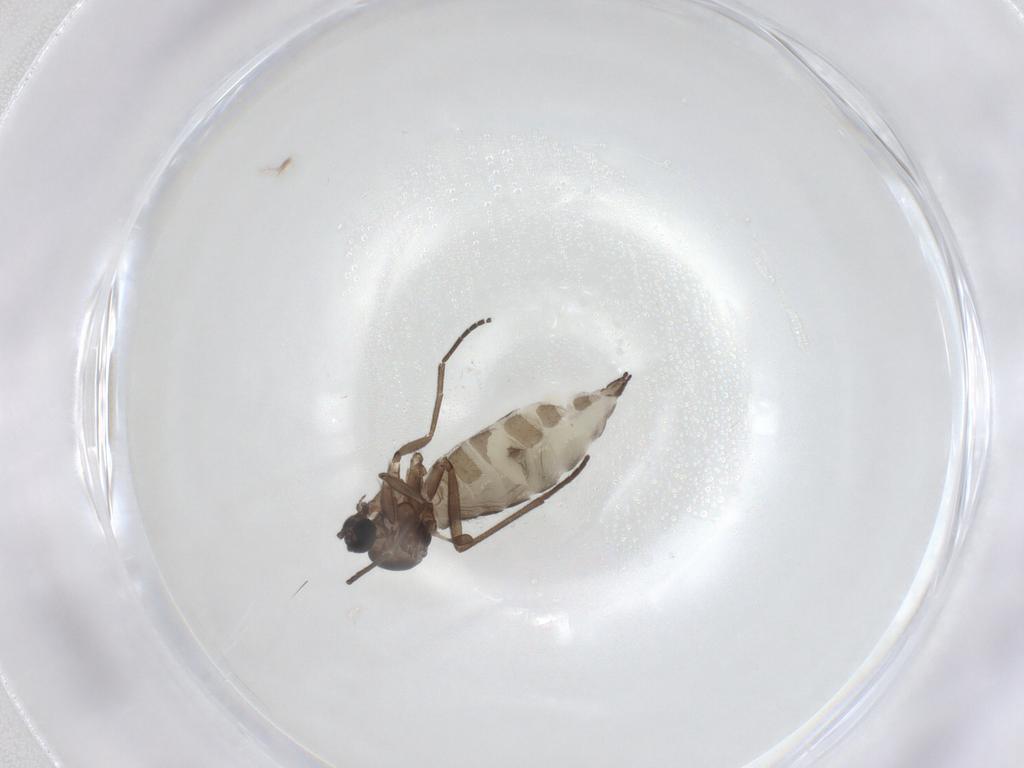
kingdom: Animalia
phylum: Arthropoda
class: Insecta
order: Diptera
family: Sciaridae
